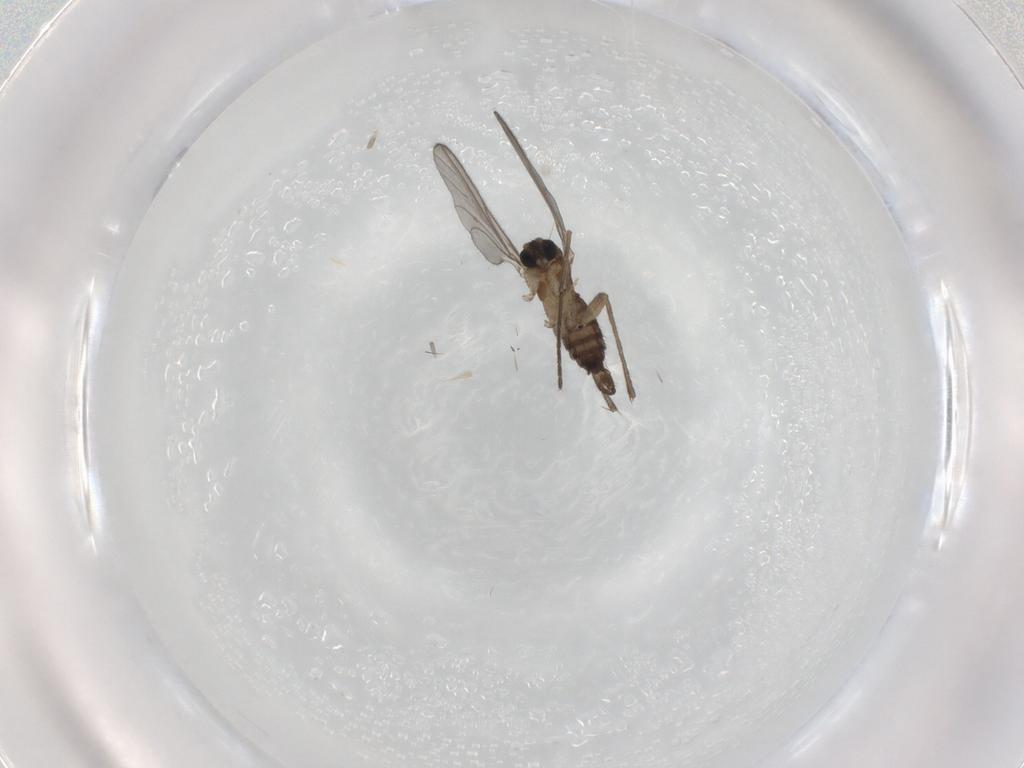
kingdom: Animalia
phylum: Arthropoda
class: Insecta
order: Diptera
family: Sciaridae
